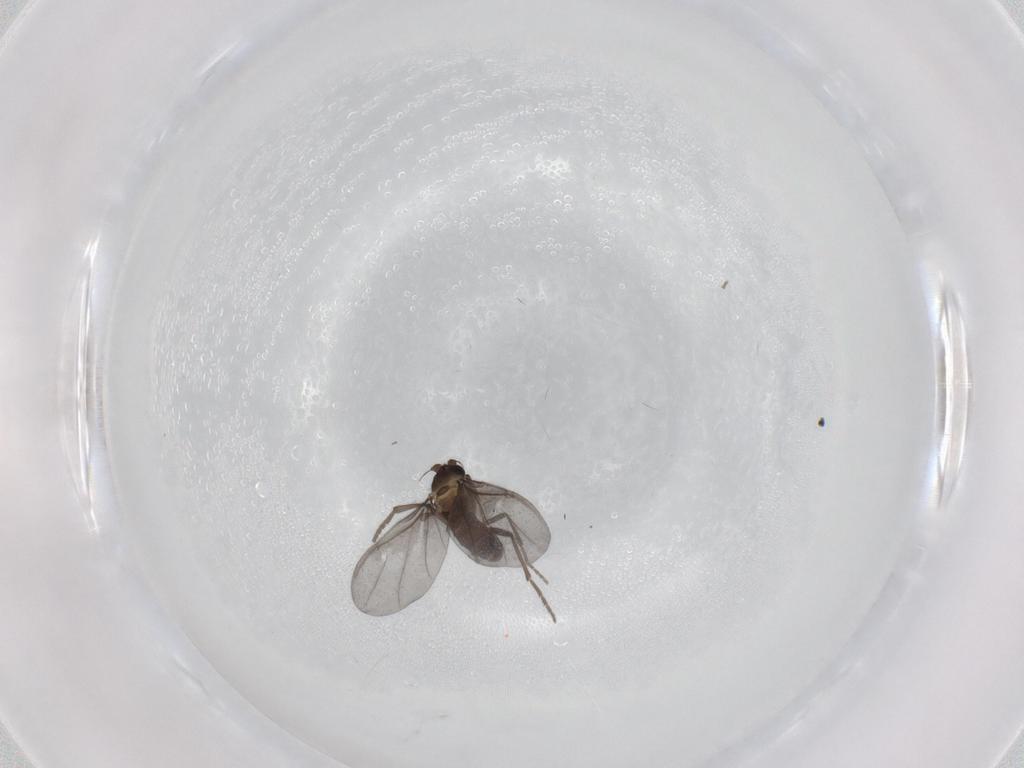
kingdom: Animalia
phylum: Arthropoda
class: Insecta
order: Diptera
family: Phoridae
